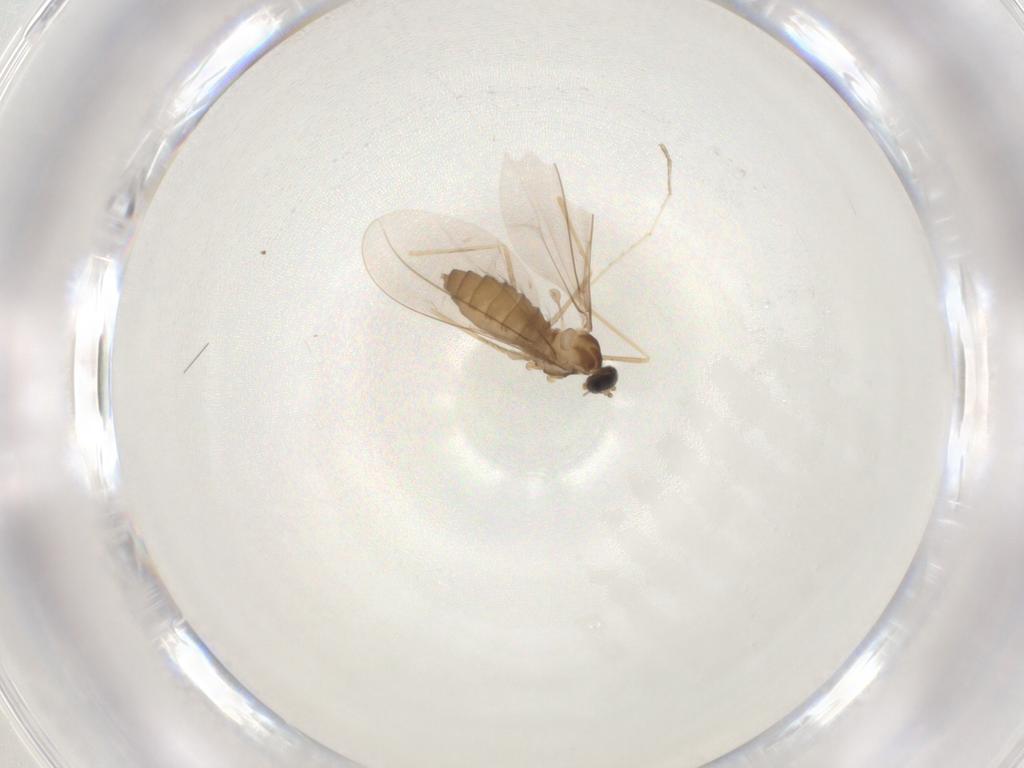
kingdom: Animalia
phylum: Arthropoda
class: Insecta
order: Diptera
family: Cecidomyiidae
